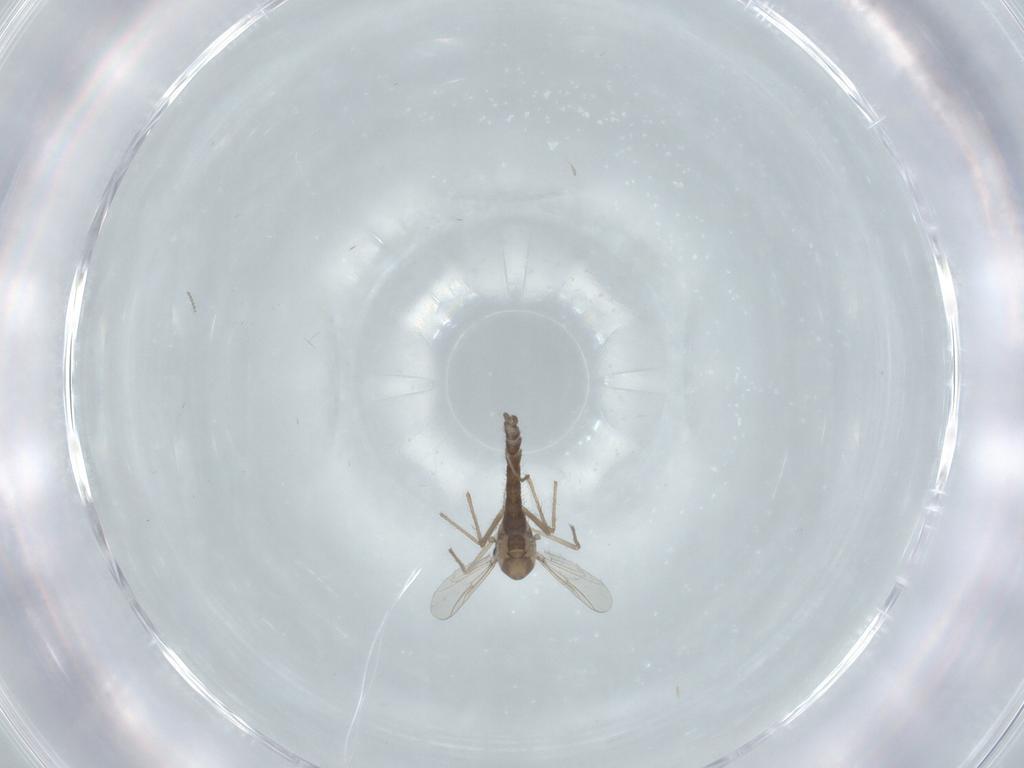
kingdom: Animalia
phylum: Arthropoda
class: Insecta
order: Diptera
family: Chironomidae
